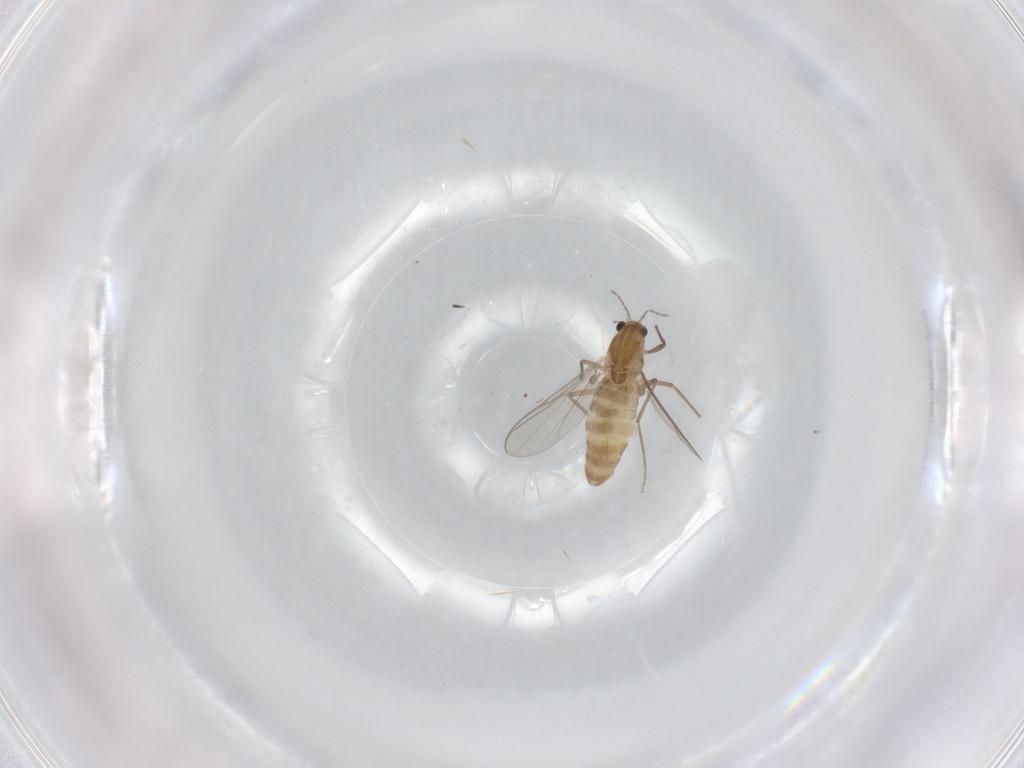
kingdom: Animalia
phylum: Arthropoda
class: Insecta
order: Diptera
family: Chironomidae
